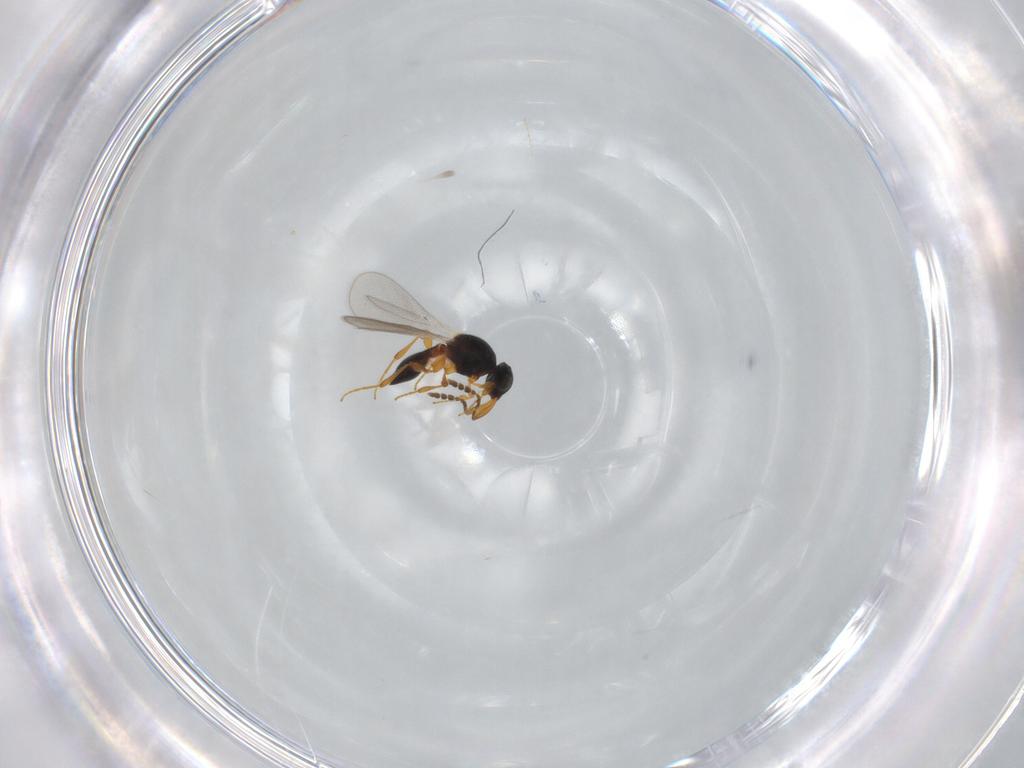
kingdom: Animalia
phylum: Arthropoda
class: Insecta
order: Hymenoptera
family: Platygastridae
